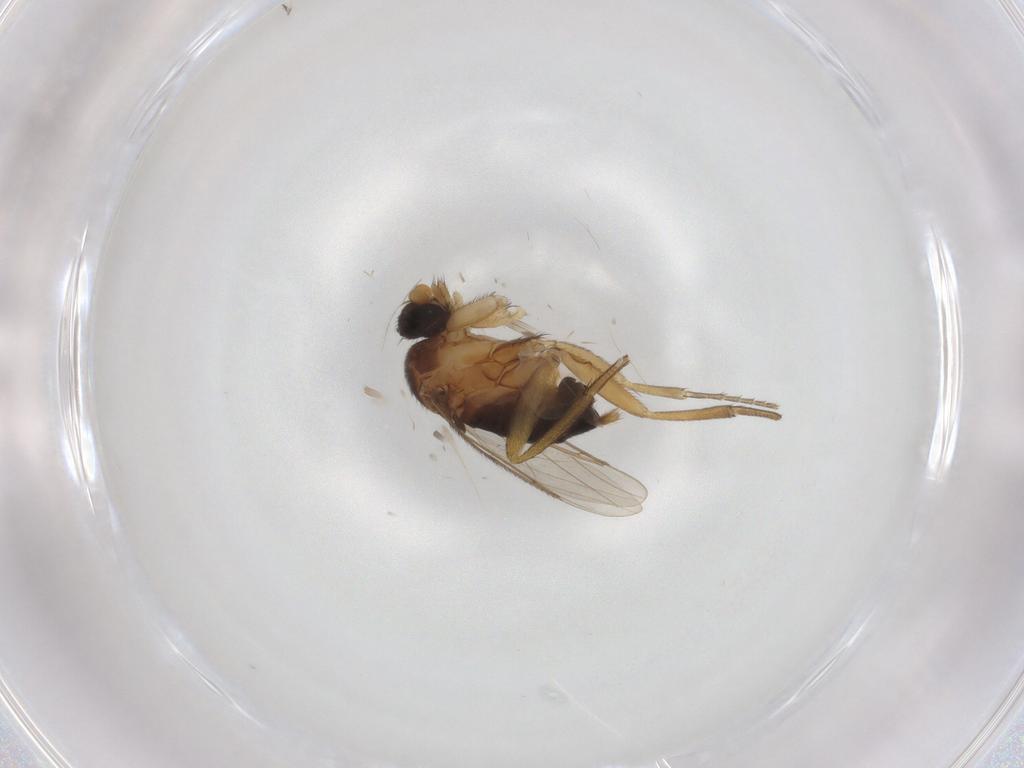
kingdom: Animalia
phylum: Arthropoda
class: Insecta
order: Diptera
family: Phoridae
